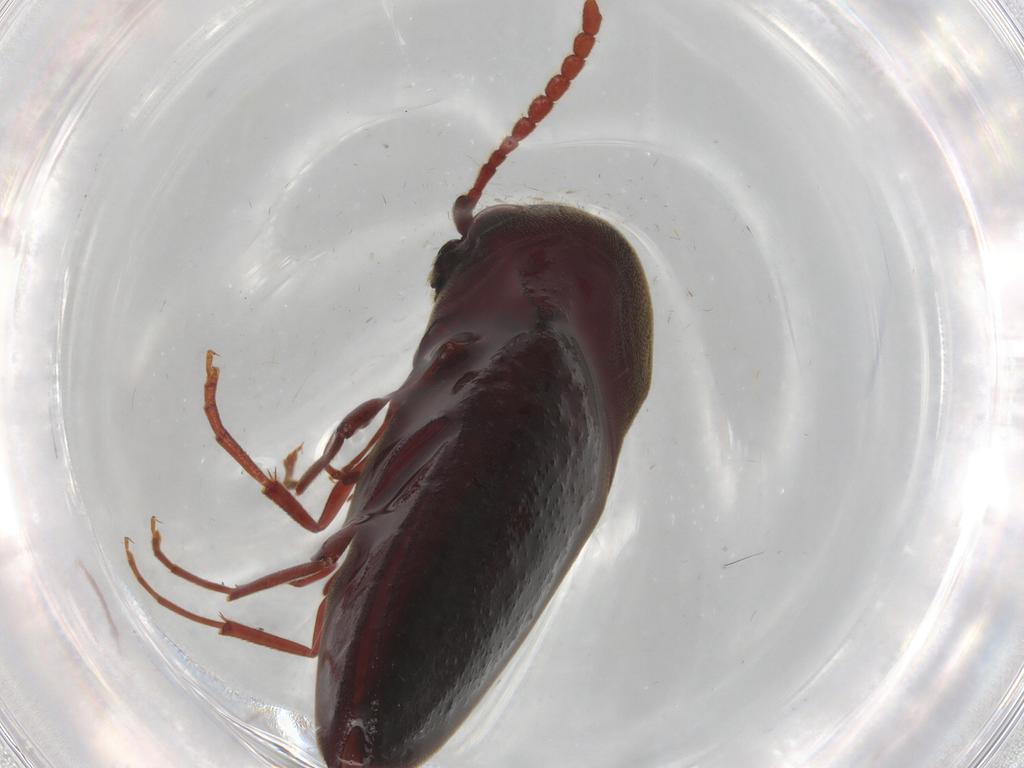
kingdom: Animalia
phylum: Arthropoda
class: Insecta
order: Coleoptera
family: Eucnemidae
